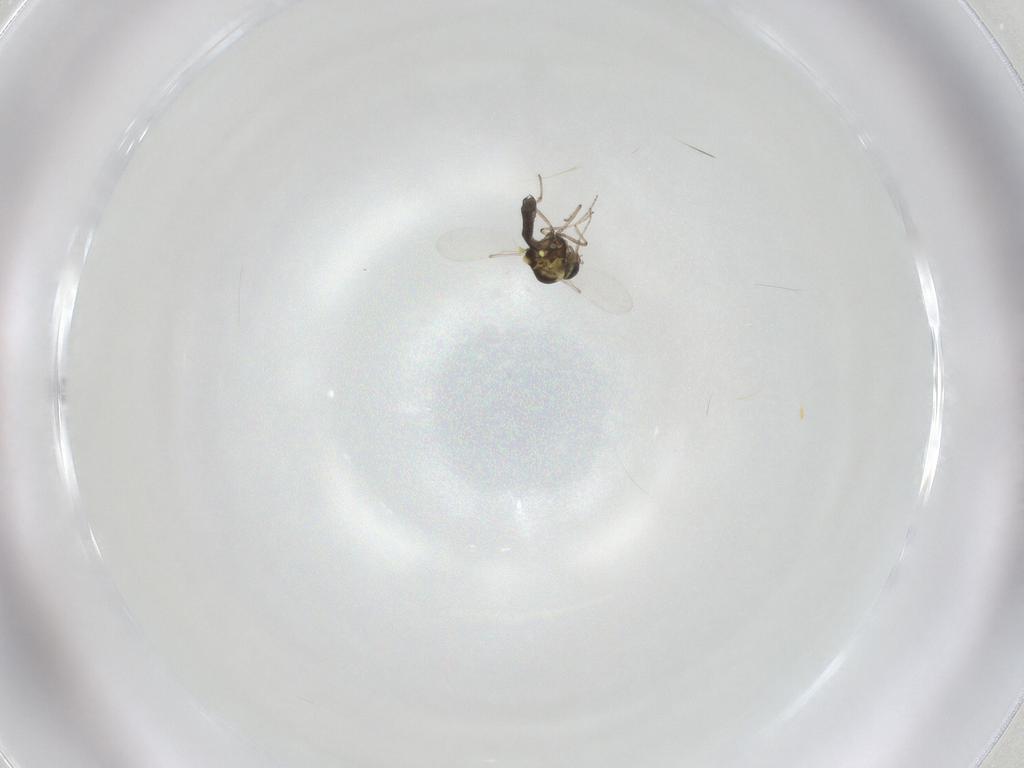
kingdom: Animalia
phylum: Arthropoda
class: Insecta
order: Diptera
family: Ceratopogonidae
